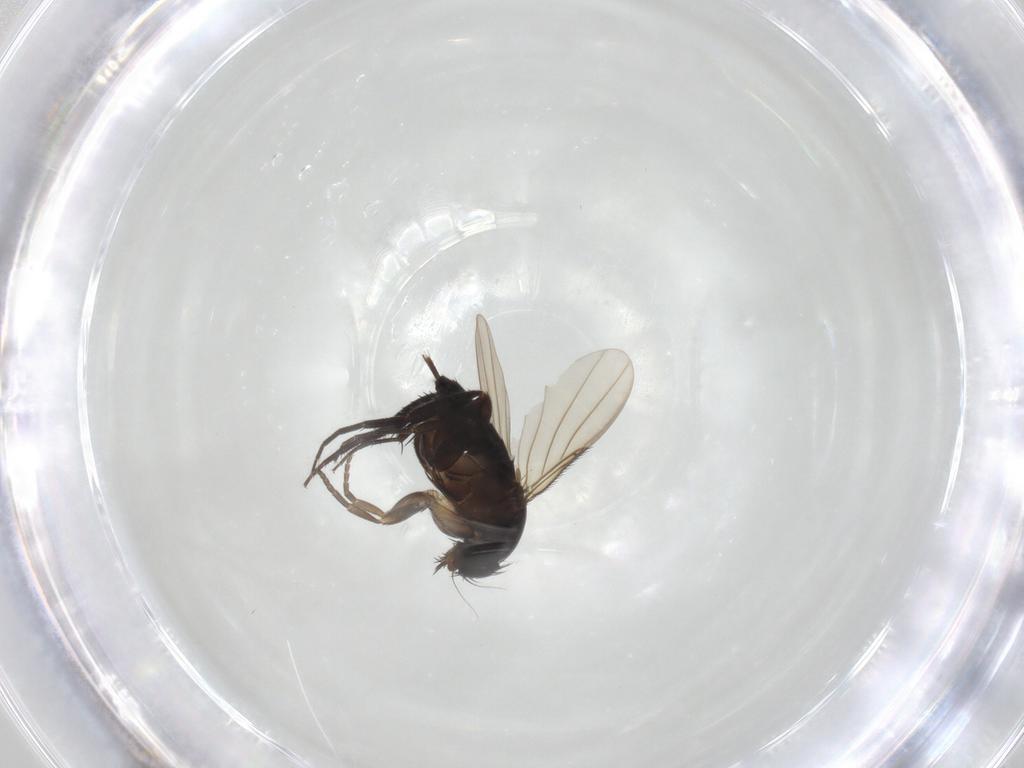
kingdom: Animalia
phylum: Arthropoda
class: Insecta
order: Diptera
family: Phoridae
